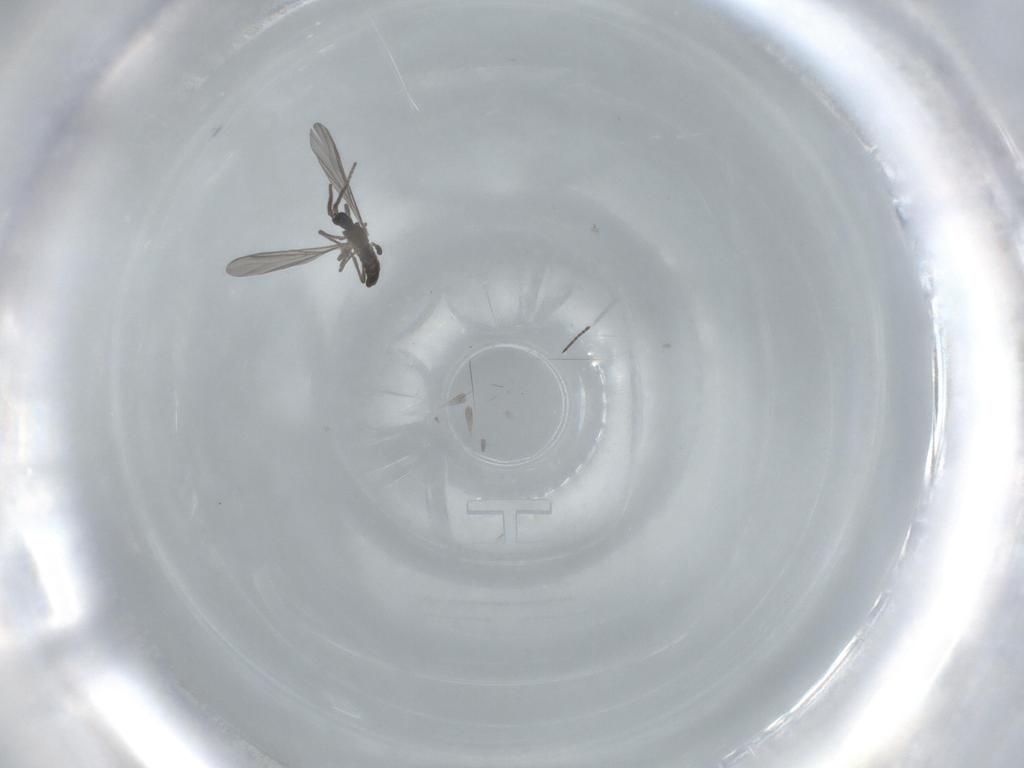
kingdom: Animalia
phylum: Arthropoda
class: Insecta
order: Diptera
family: Sciaridae
